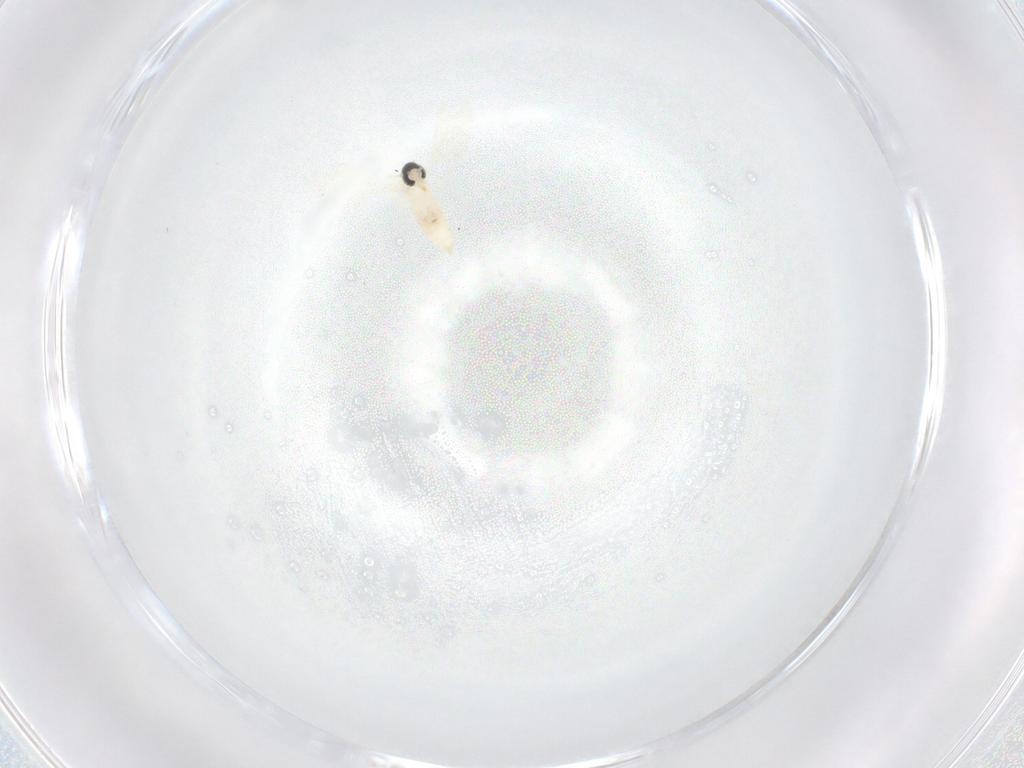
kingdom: Animalia
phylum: Arthropoda
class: Insecta
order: Diptera
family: Cecidomyiidae
